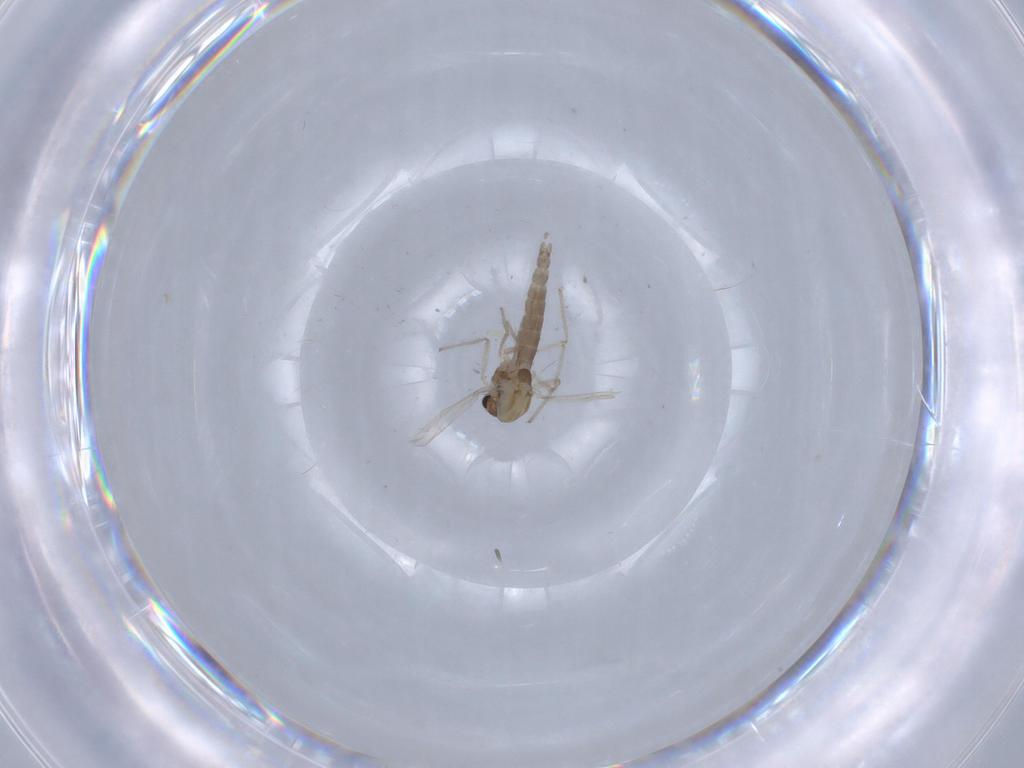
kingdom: Animalia
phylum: Arthropoda
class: Insecta
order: Diptera
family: Chironomidae
